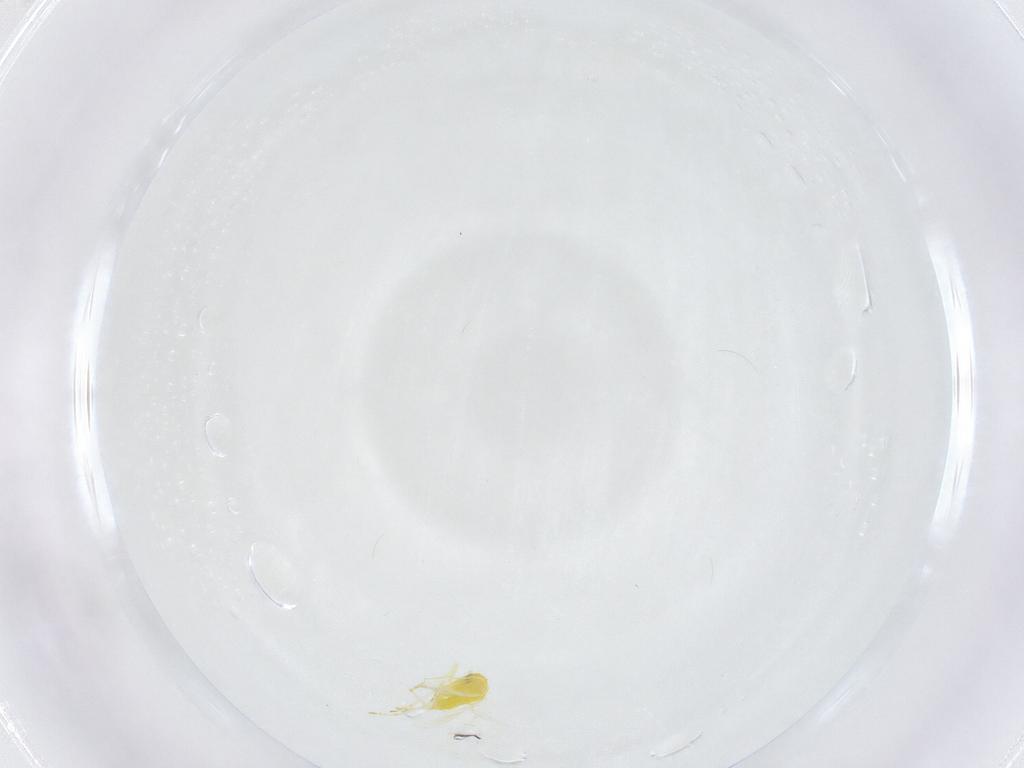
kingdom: Animalia
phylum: Arthropoda
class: Insecta
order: Hemiptera
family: Aleyrodidae
